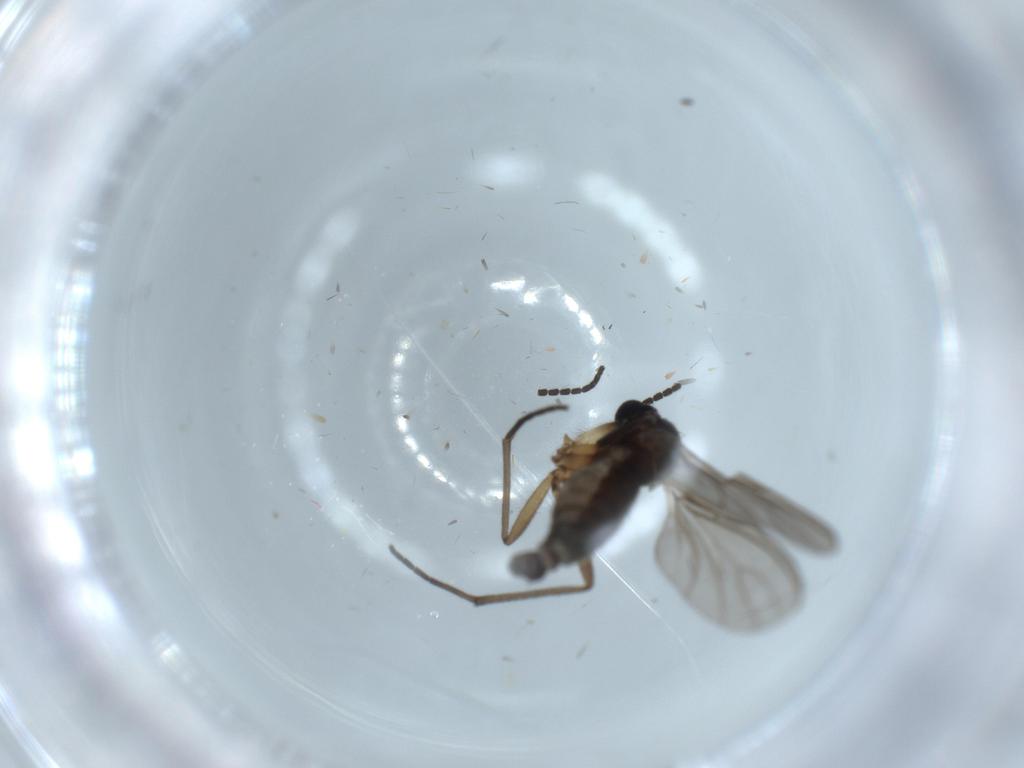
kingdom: Animalia
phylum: Arthropoda
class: Insecta
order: Diptera
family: Sciaridae
